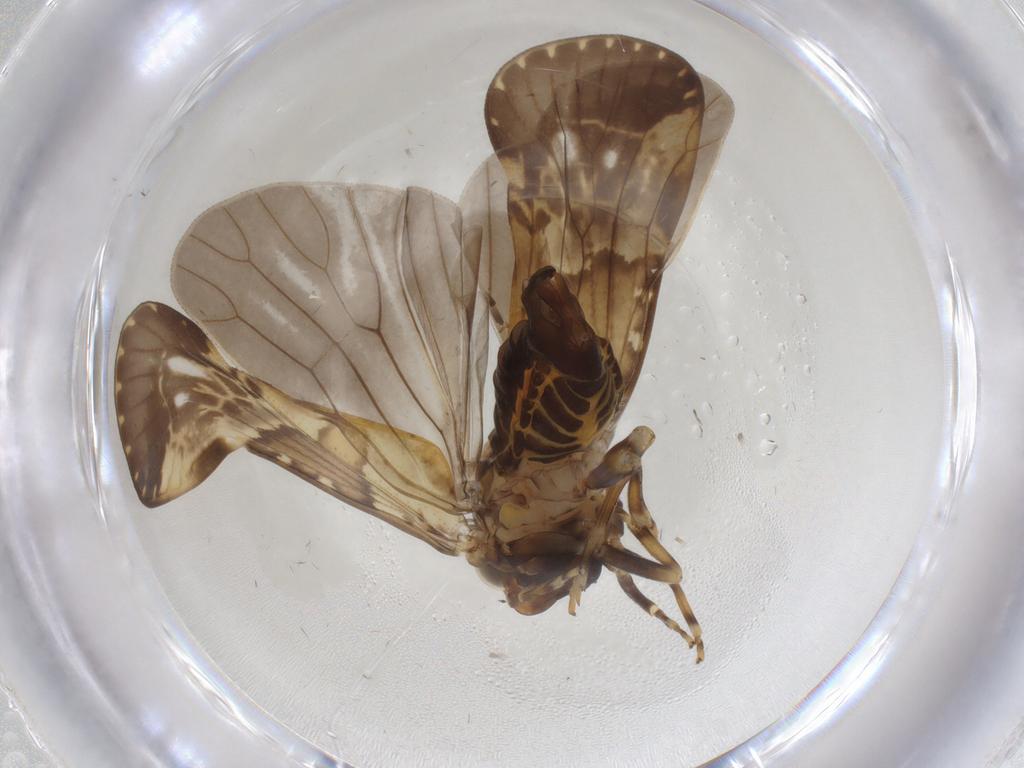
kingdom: Animalia
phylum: Arthropoda
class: Insecta
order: Hemiptera
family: Cixiidae
